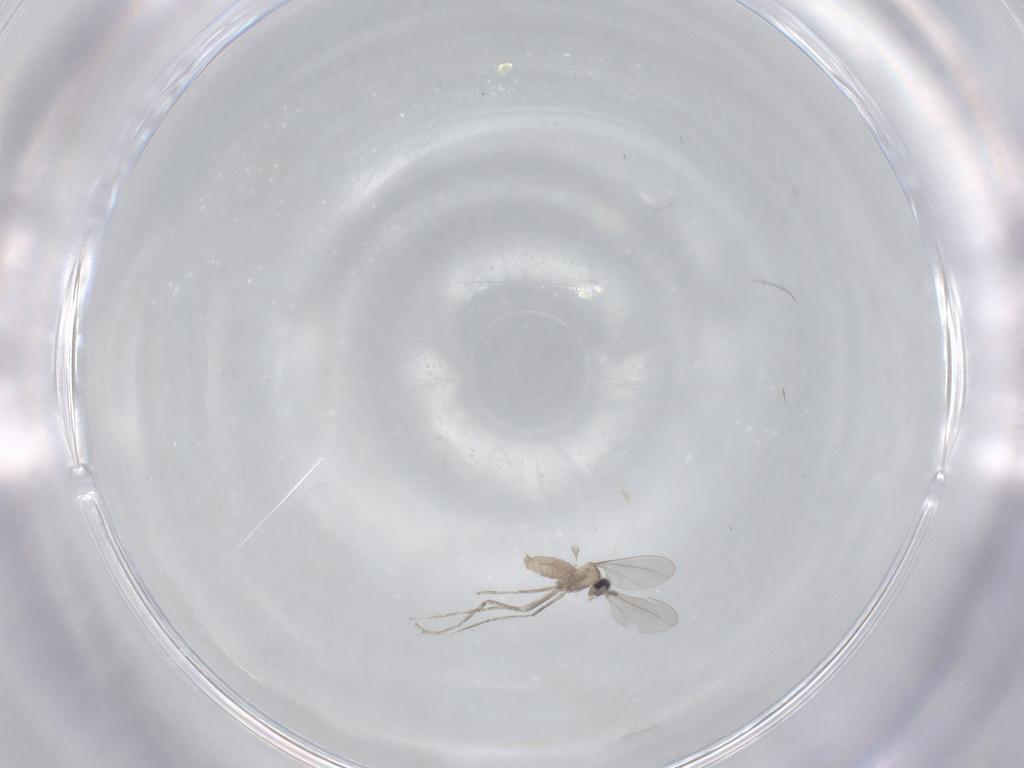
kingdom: Animalia
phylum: Arthropoda
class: Insecta
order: Diptera
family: Cecidomyiidae
